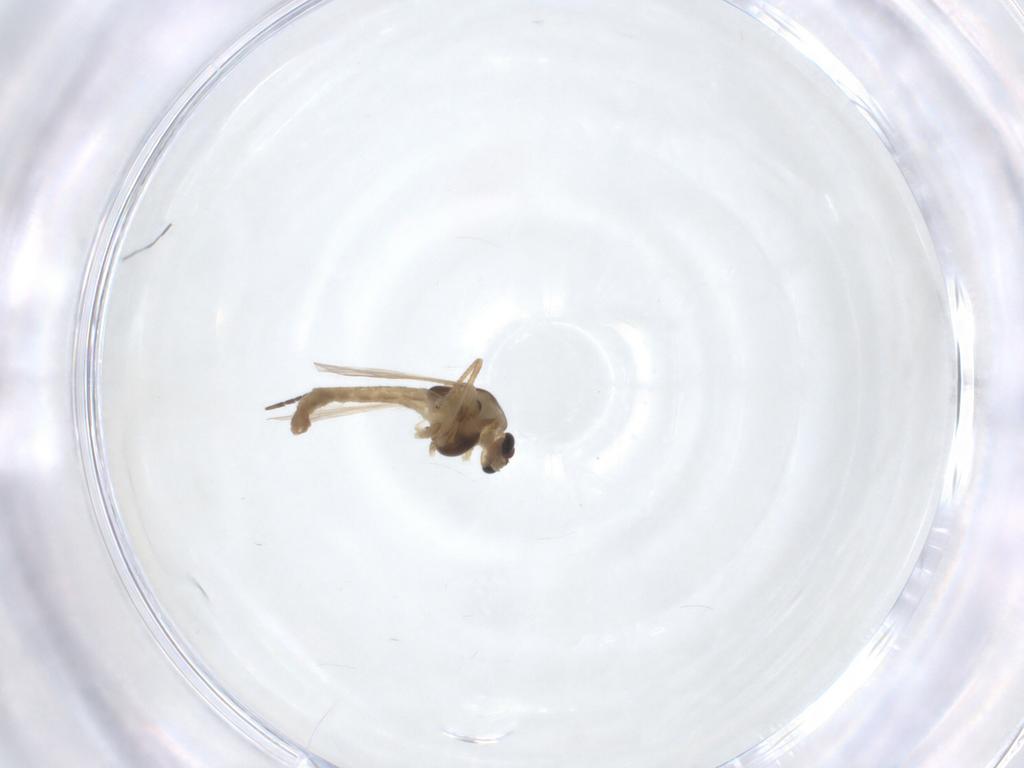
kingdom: Animalia
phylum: Arthropoda
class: Insecta
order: Diptera
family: Chironomidae
